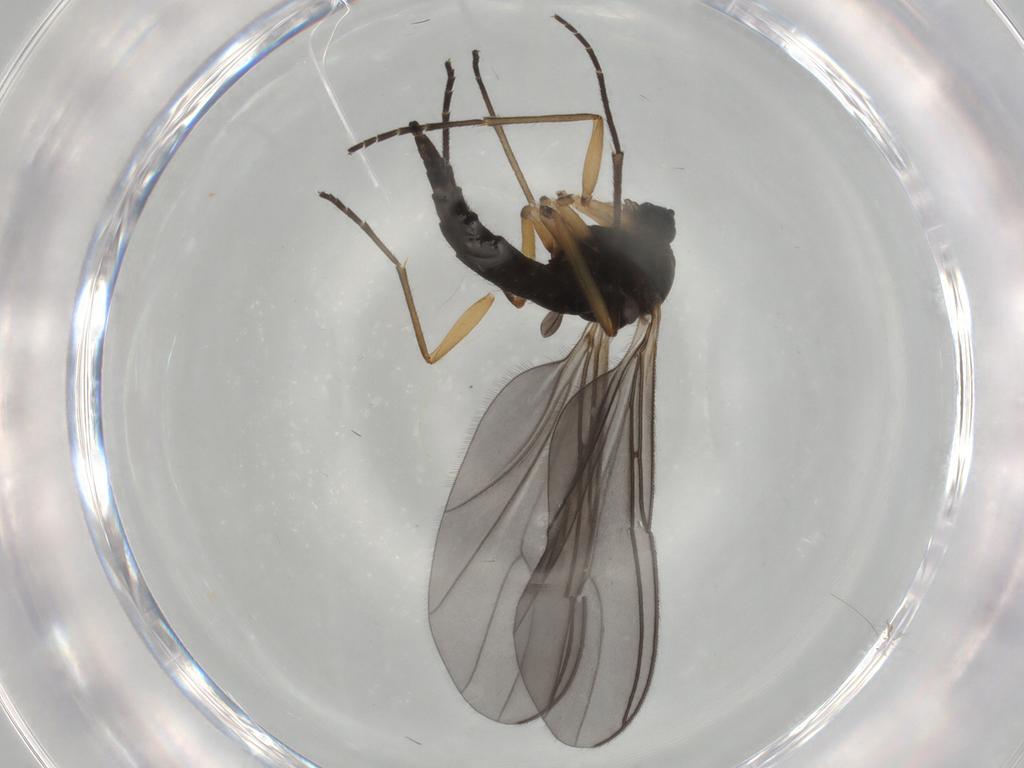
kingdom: Animalia
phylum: Arthropoda
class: Insecta
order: Diptera
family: Sciaridae
